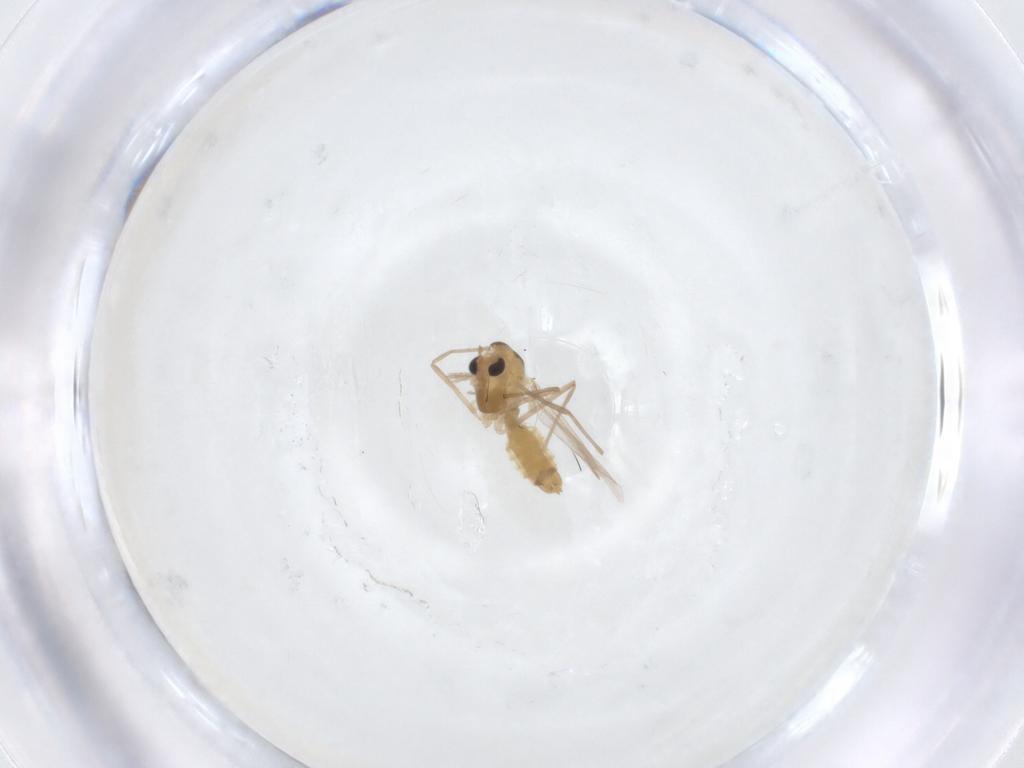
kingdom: Animalia
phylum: Arthropoda
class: Insecta
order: Diptera
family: Chironomidae
